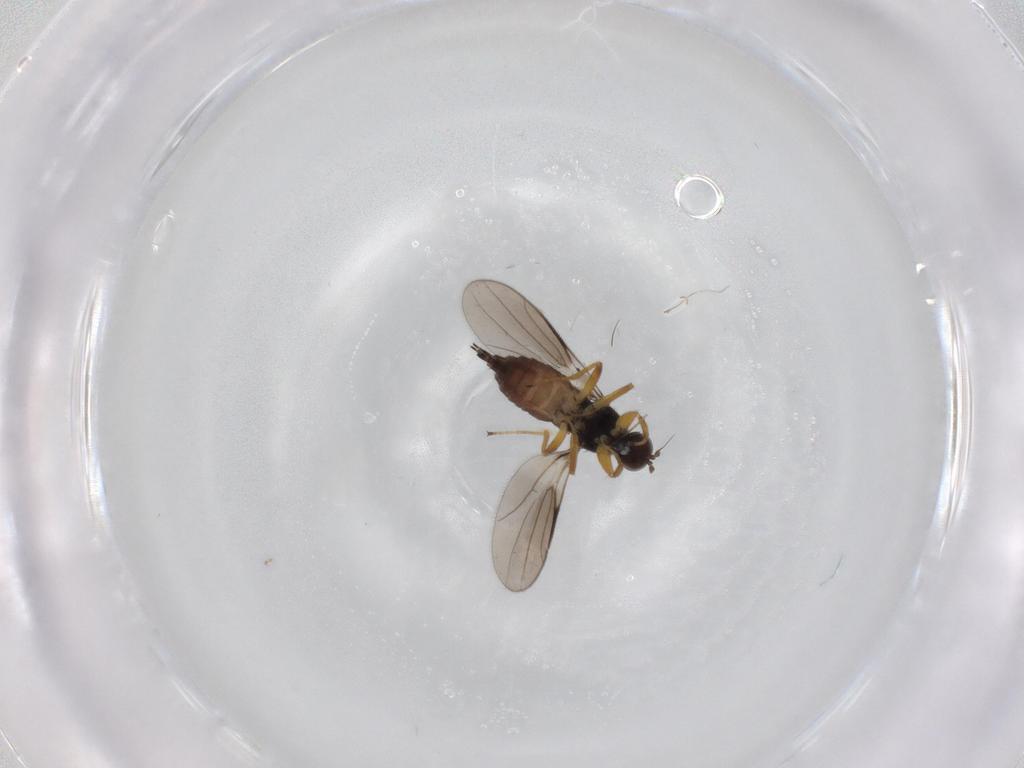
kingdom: Animalia
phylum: Arthropoda
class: Insecta
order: Diptera
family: Hybotidae
